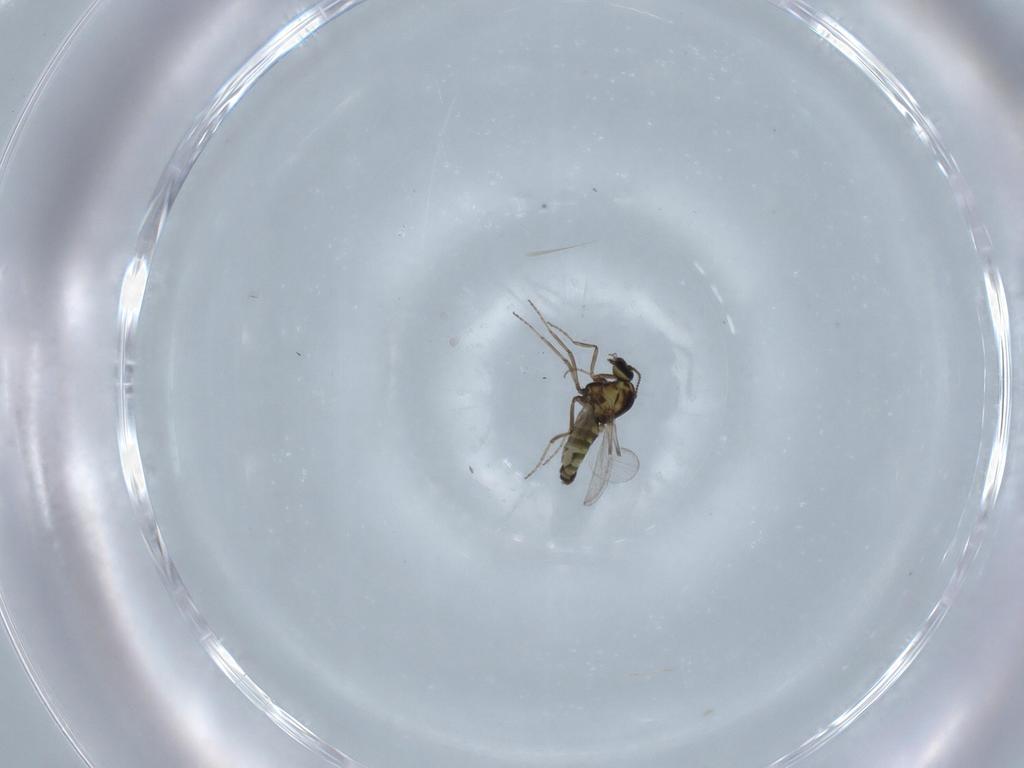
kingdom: Animalia
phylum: Arthropoda
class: Insecta
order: Diptera
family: Ceratopogonidae
